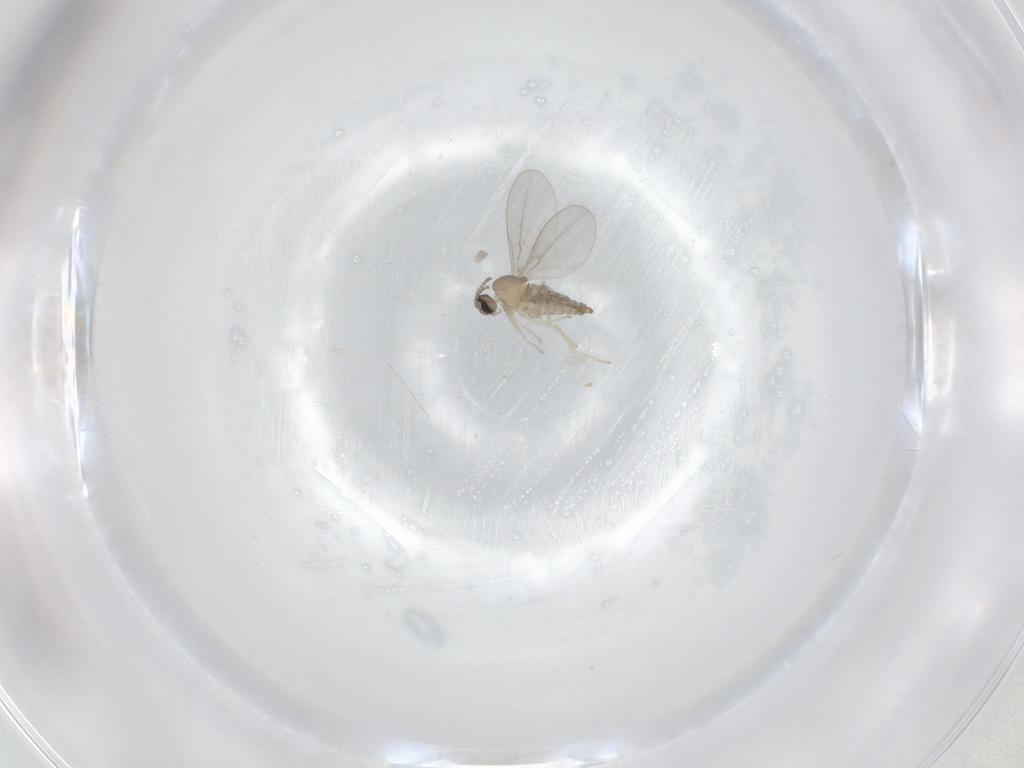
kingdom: Animalia
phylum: Arthropoda
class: Insecta
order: Diptera
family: Cecidomyiidae
